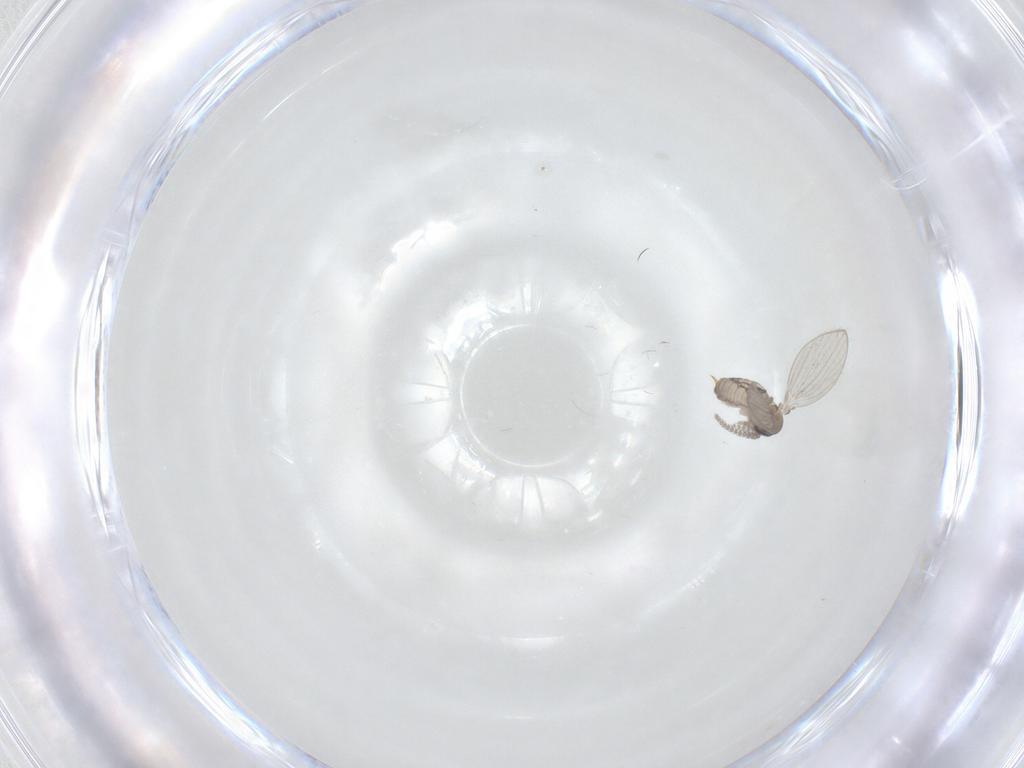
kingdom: Animalia
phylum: Arthropoda
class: Insecta
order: Diptera
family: Psychodidae
